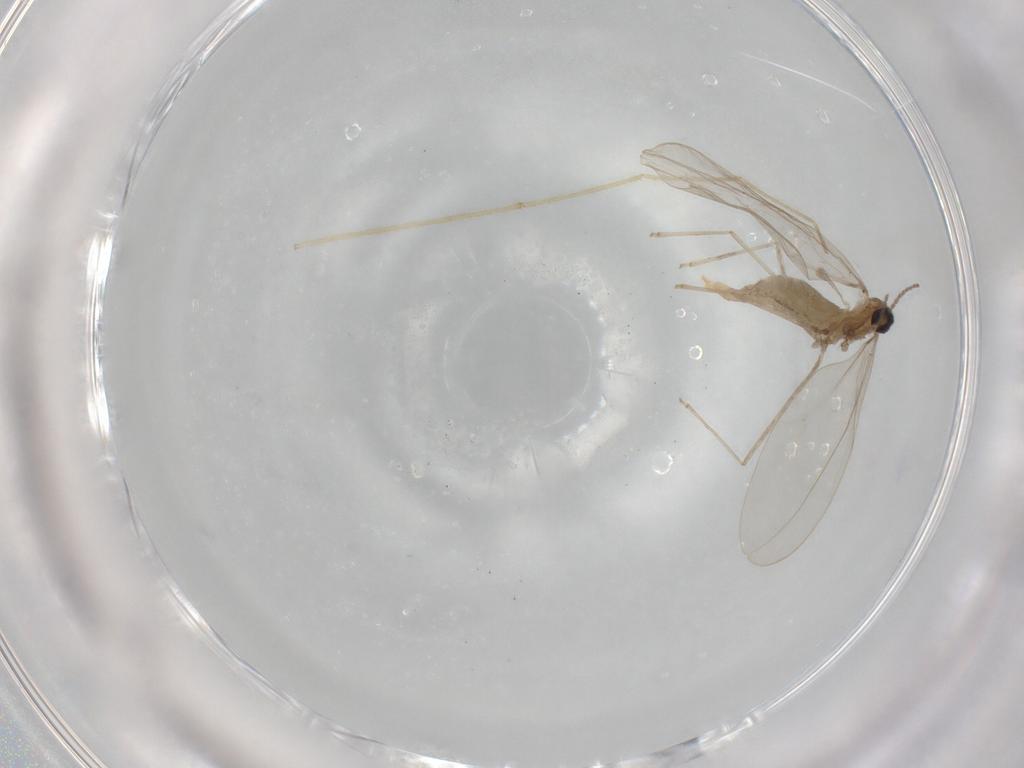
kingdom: Animalia
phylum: Arthropoda
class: Insecta
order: Diptera
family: Cecidomyiidae
